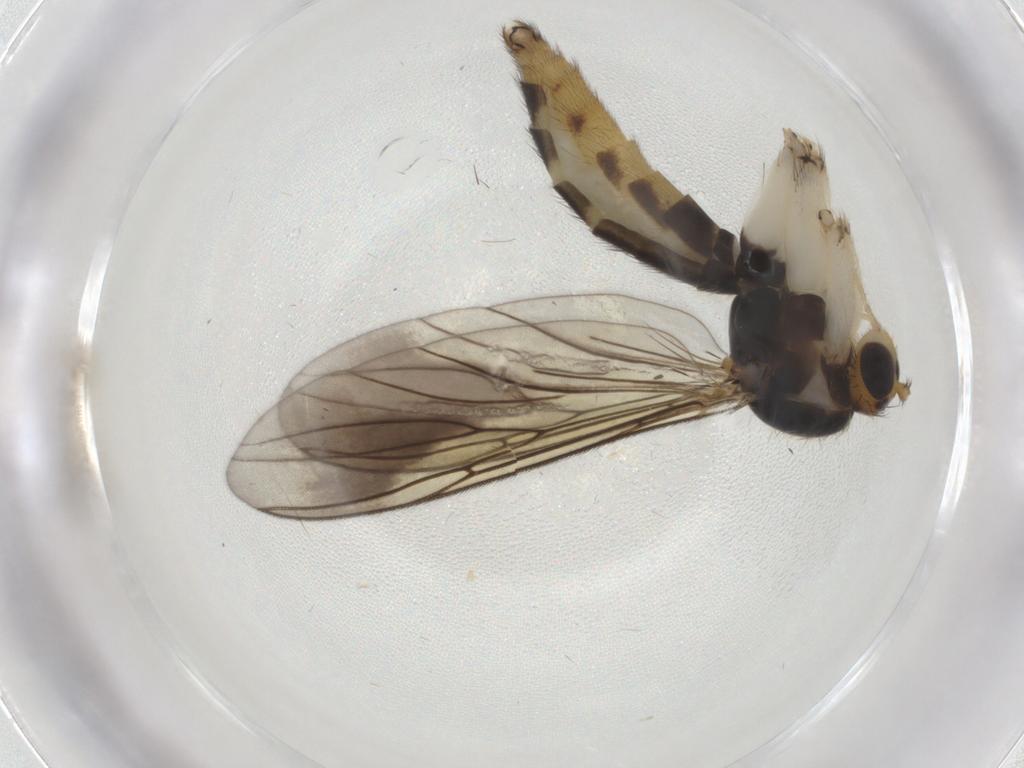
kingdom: Animalia
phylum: Arthropoda
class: Insecta
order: Diptera
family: Mycetophilidae
